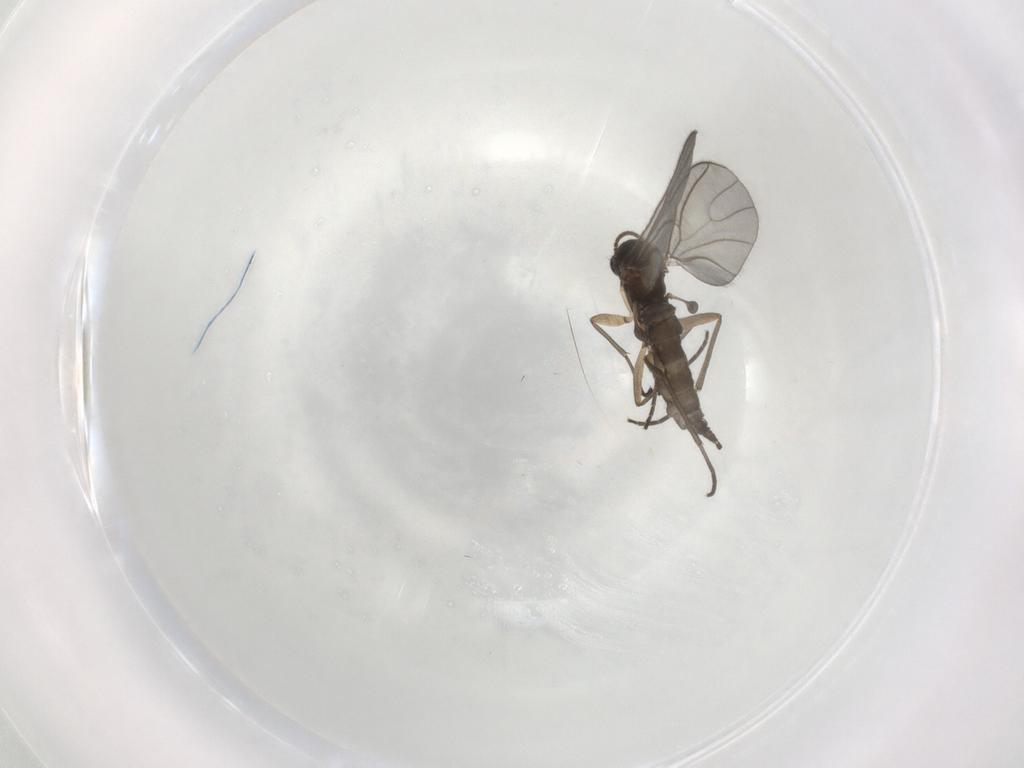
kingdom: Animalia
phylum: Arthropoda
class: Insecta
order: Diptera
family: Sciaridae
